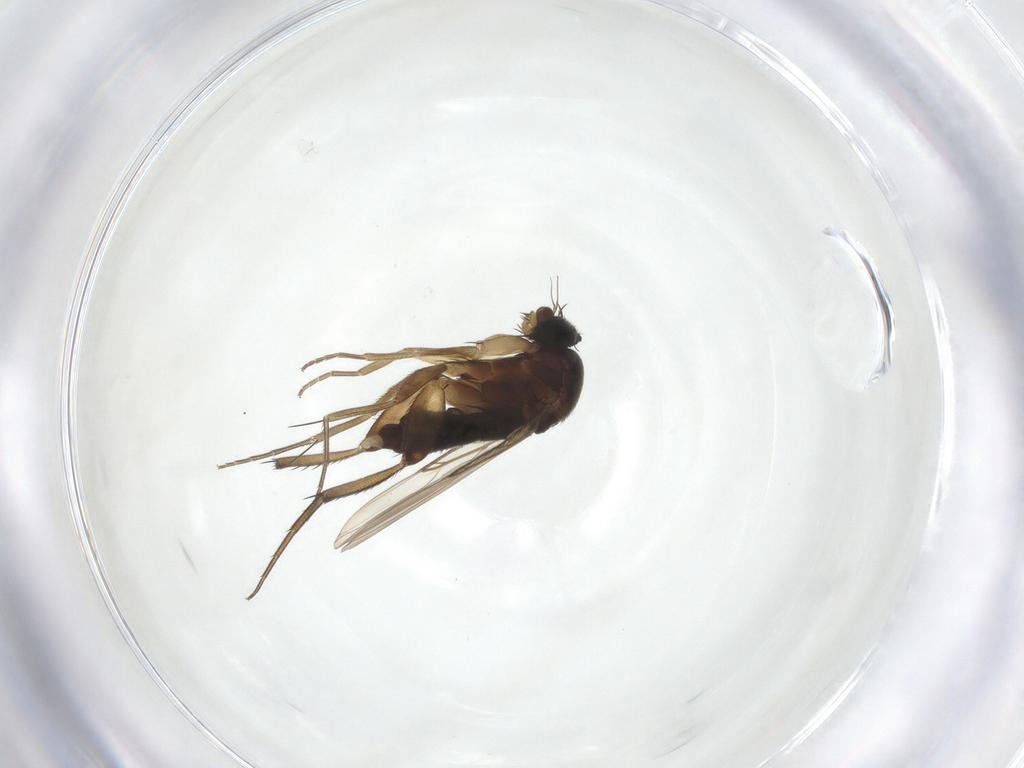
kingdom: Animalia
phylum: Arthropoda
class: Insecta
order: Diptera
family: Phoridae
